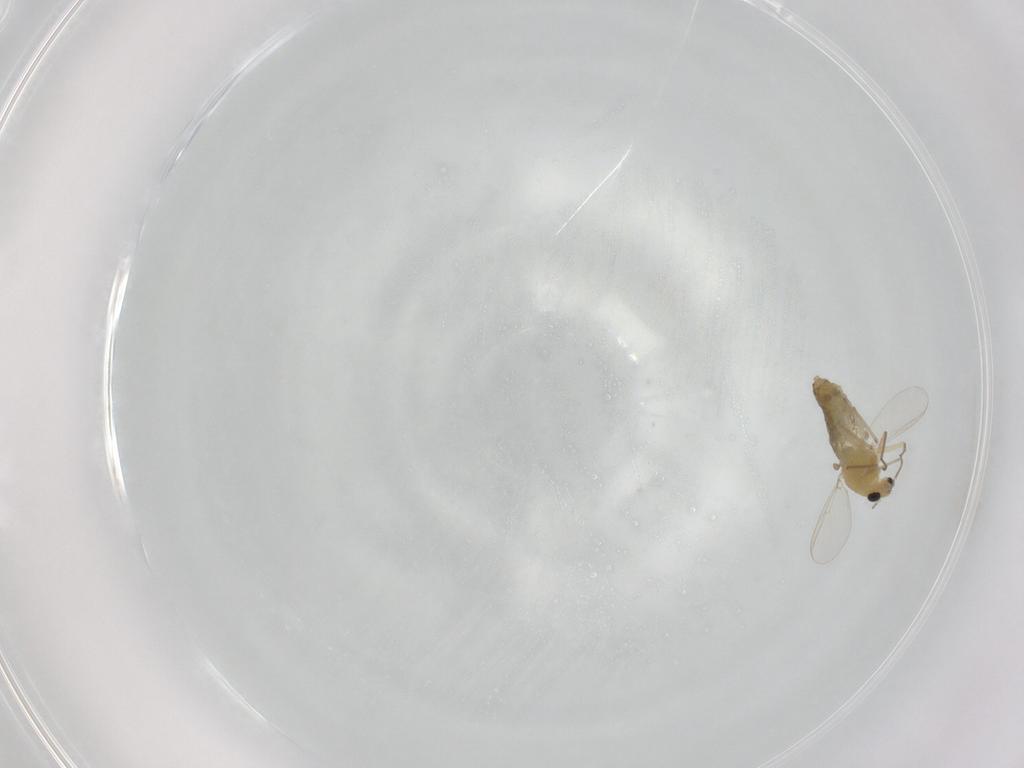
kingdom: Animalia
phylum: Arthropoda
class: Insecta
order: Diptera
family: Chironomidae
